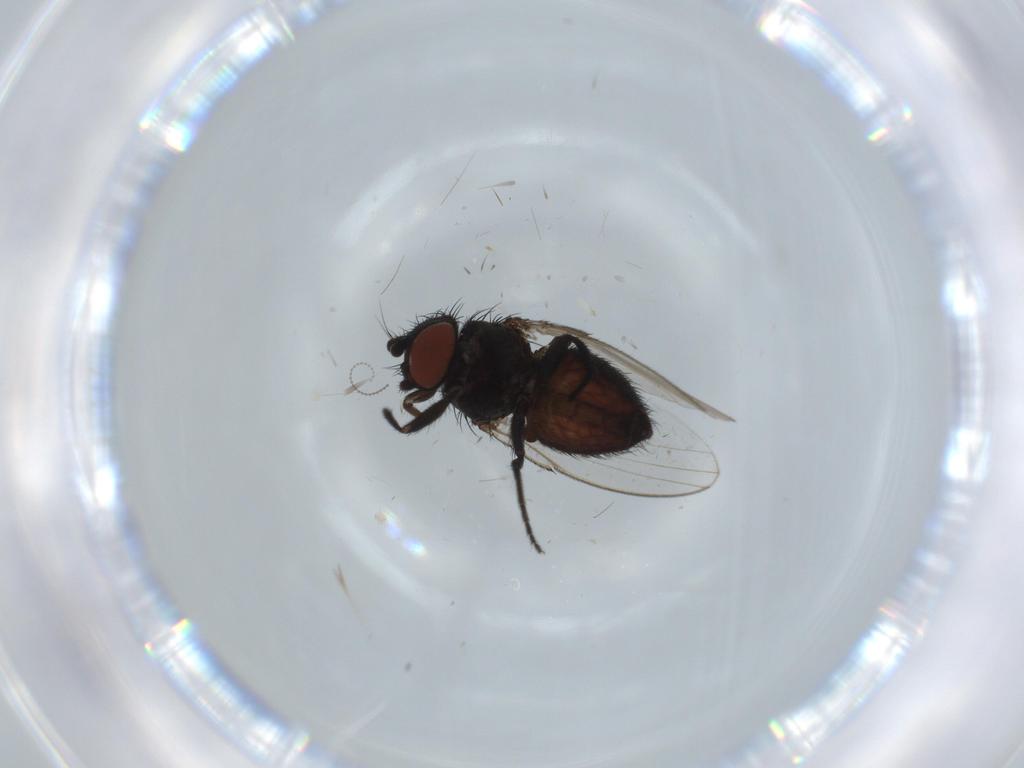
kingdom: Animalia
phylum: Arthropoda
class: Insecta
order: Diptera
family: Milichiidae
